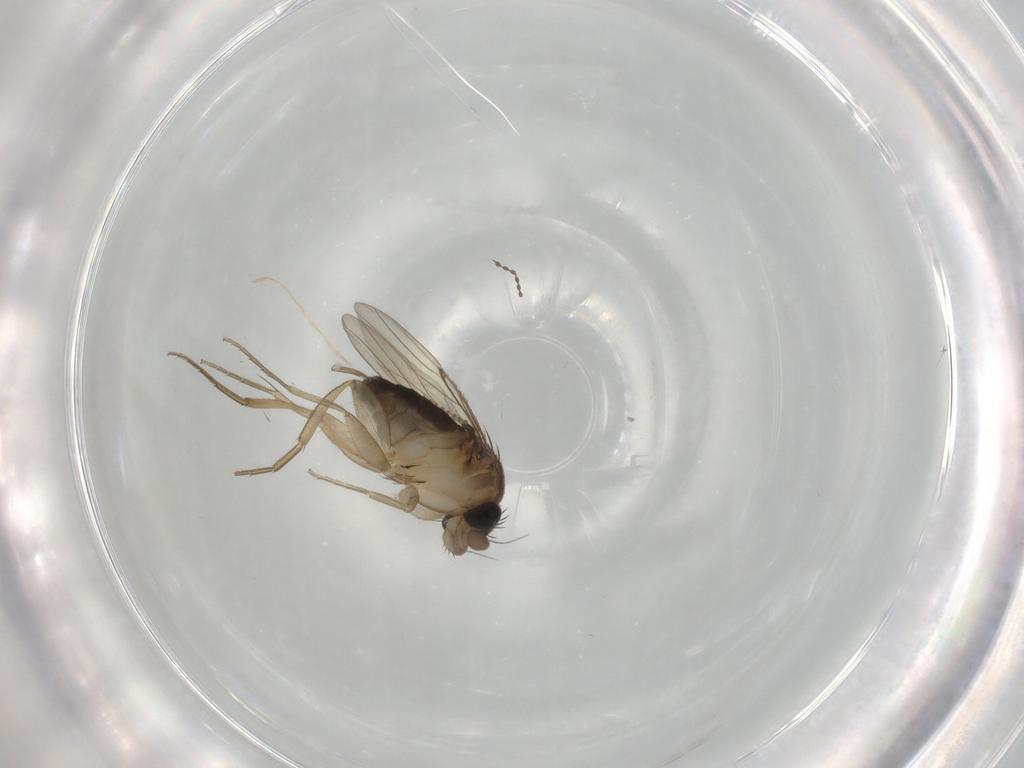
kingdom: Animalia
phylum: Arthropoda
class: Insecta
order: Diptera
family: Phoridae
